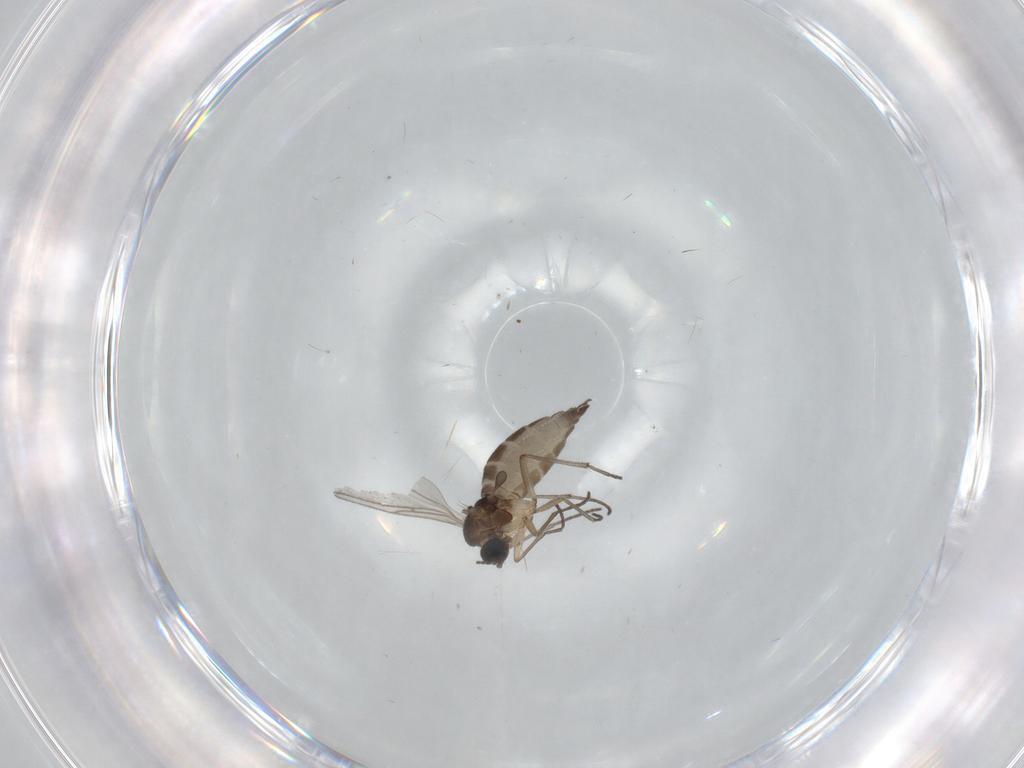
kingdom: Animalia
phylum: Arthropoda
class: Insecta
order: Diptera
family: Sciaridae
